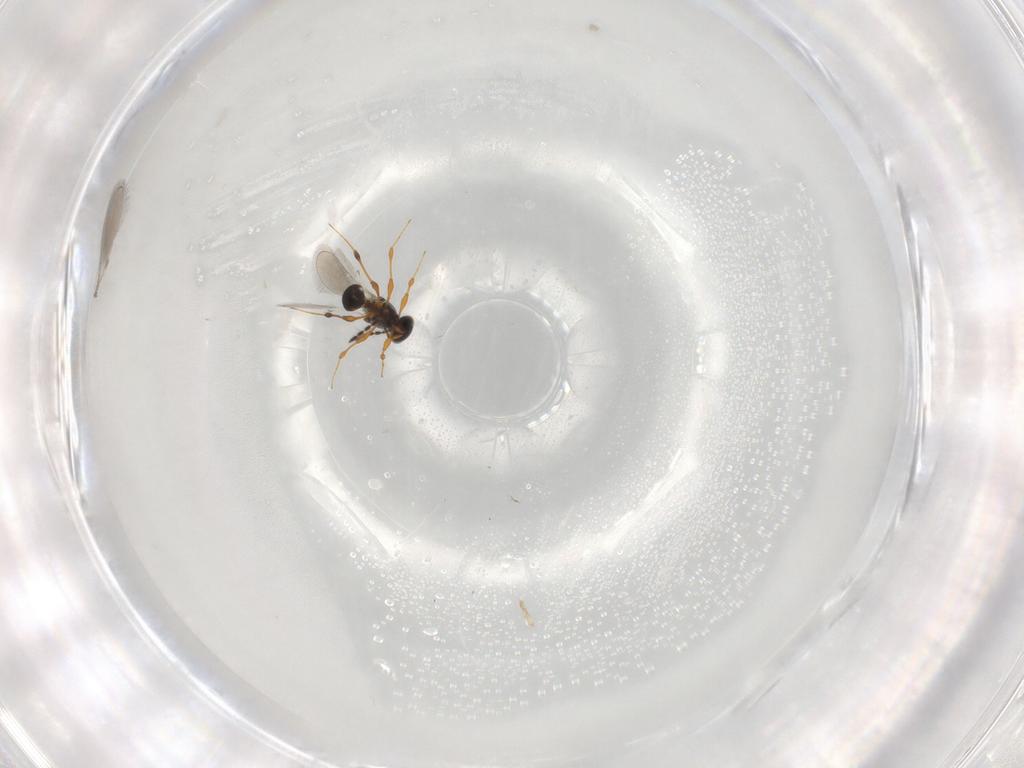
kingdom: Animalia
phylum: Arthropoda
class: Insecta
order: Hymenoptera
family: Platygastridae
